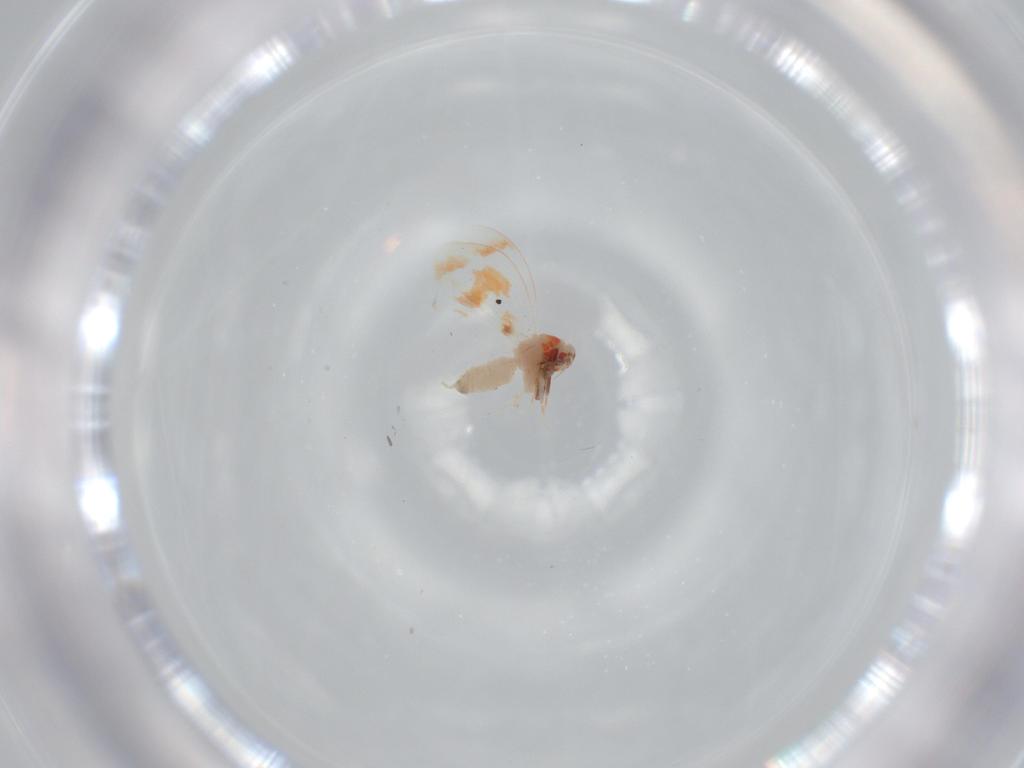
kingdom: Animalia
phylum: Arthropoda
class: Insecta
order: Hemiptera
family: Aleyrodidae
